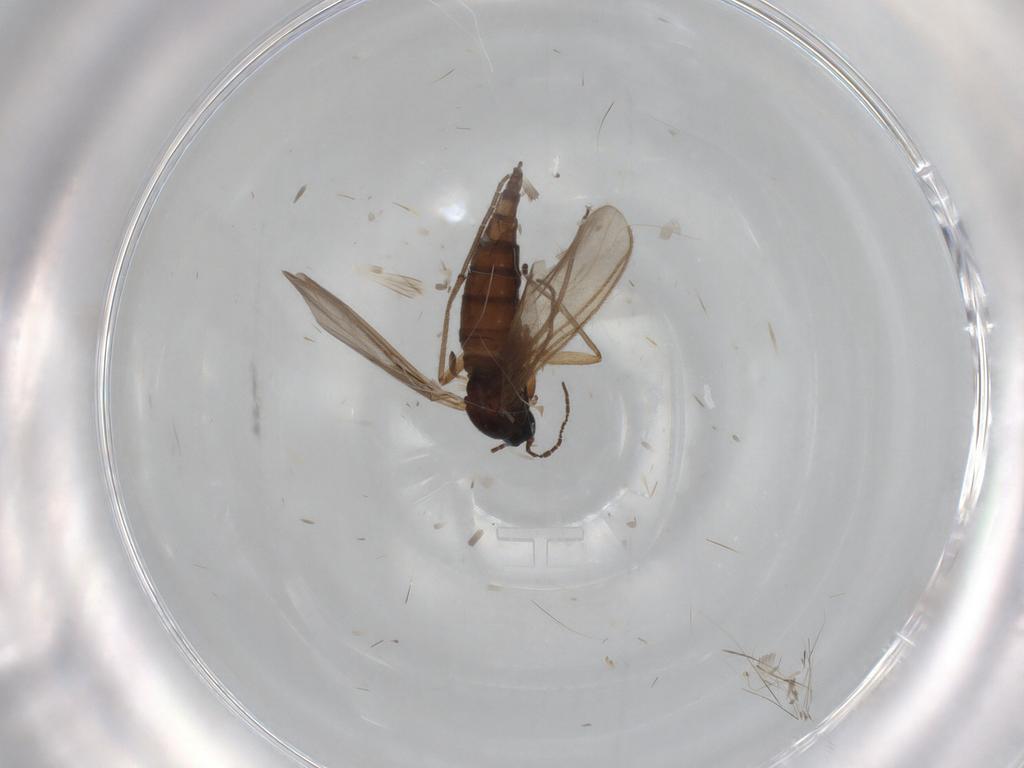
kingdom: Animalia
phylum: Arthropoda
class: Insecta
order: Diptera
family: Sciaridae
